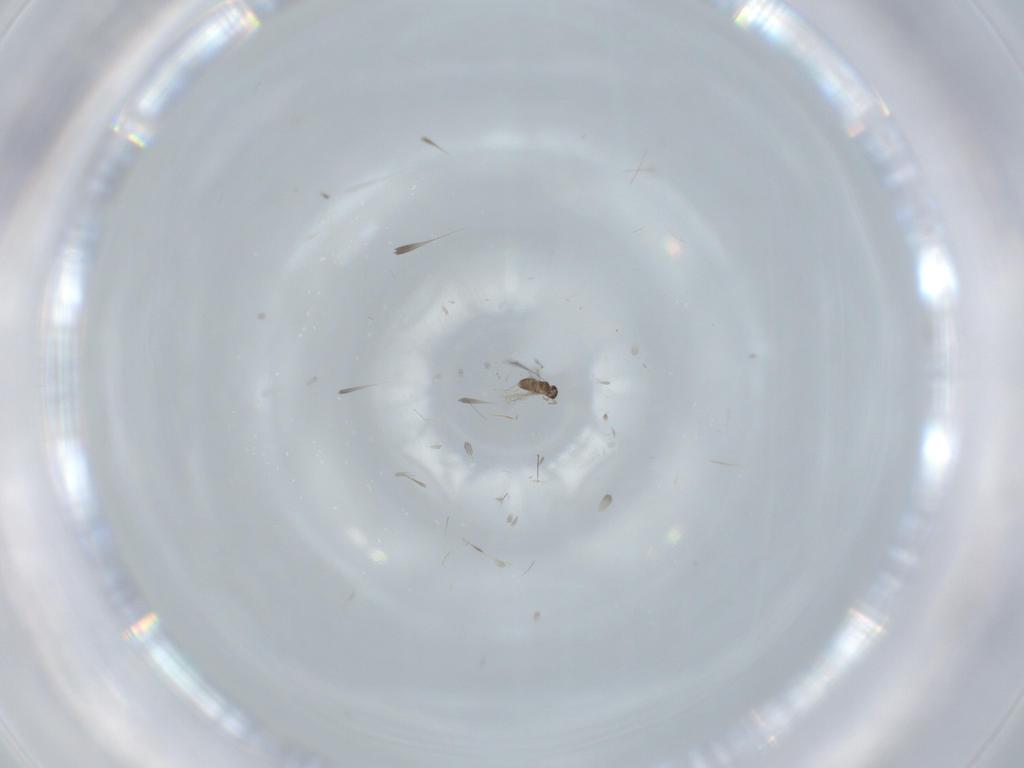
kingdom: Animalia
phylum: Arthropoda
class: Insecta
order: Hymenoptera
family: Mymaridae
